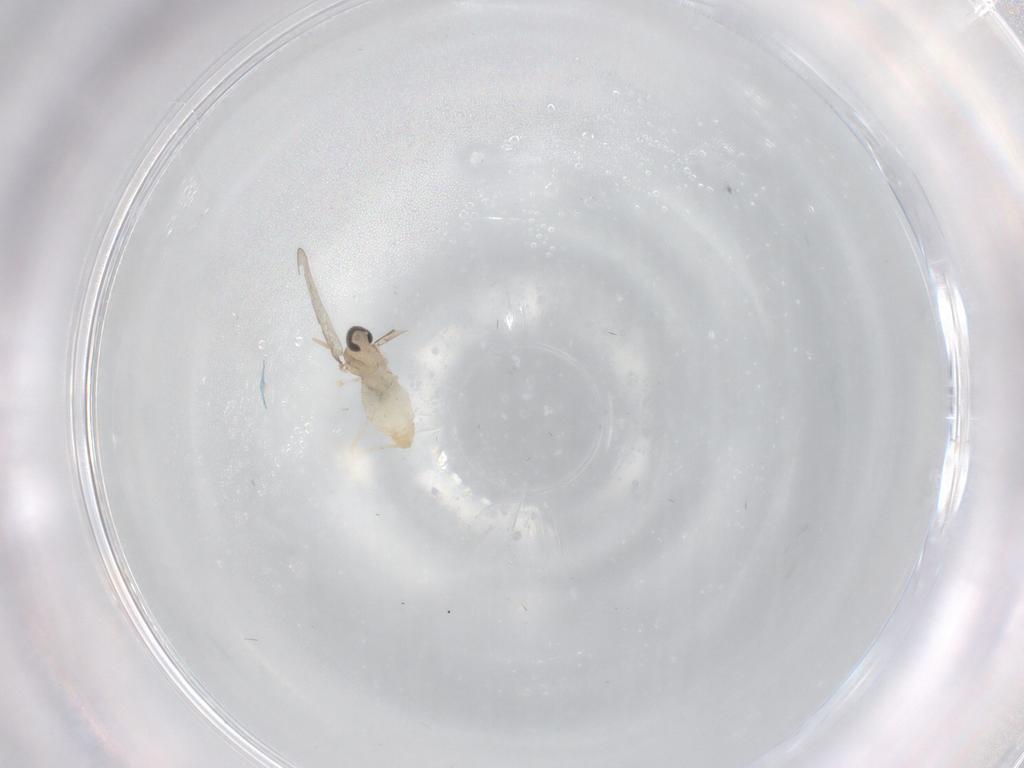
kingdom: Animalia
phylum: Arthropoda
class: Insecta
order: Diptera
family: Cecidomyiidae
